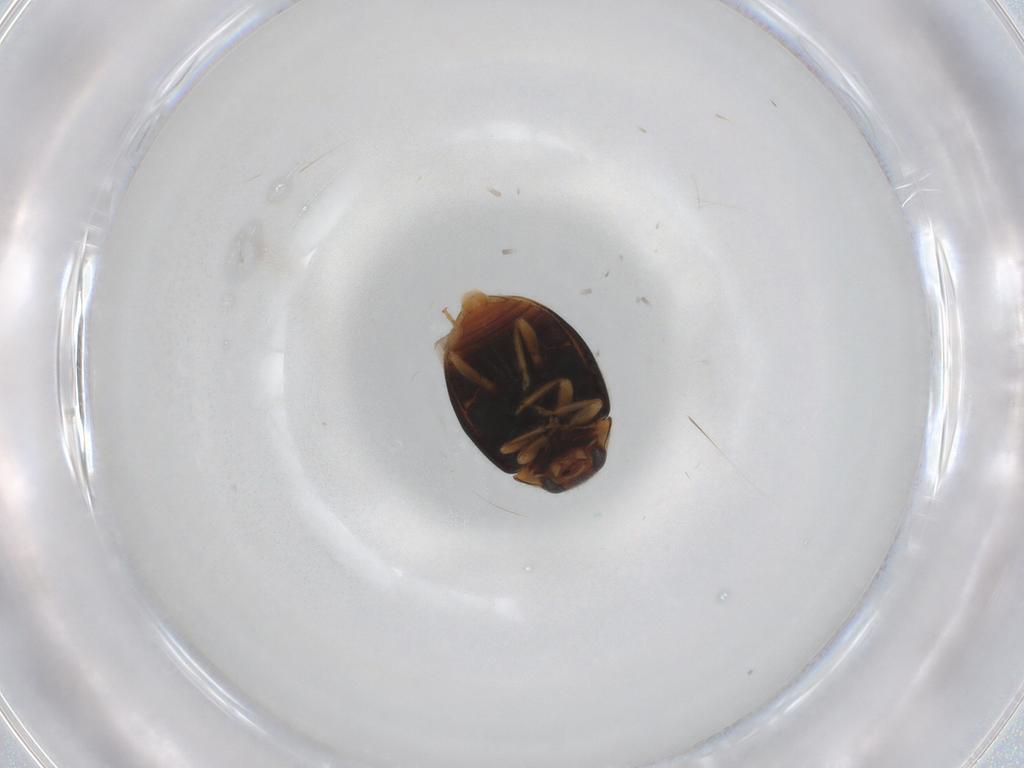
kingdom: Animalia
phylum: Arthropoda
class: Insecta
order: Coleoptera
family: Coccinellidae
